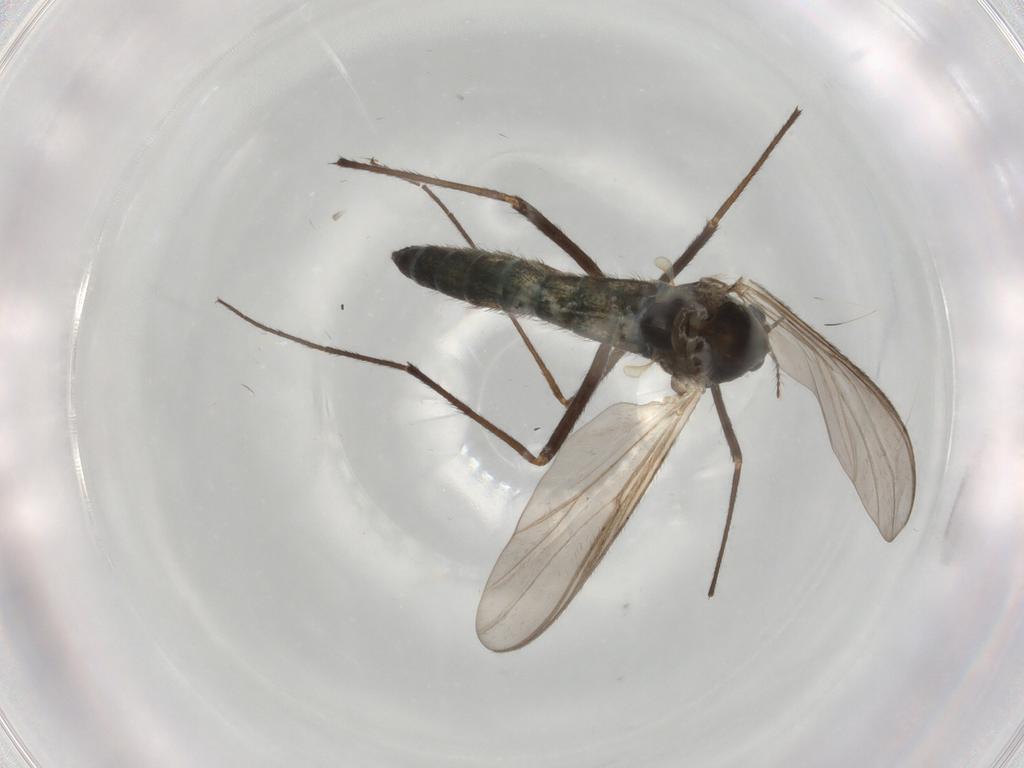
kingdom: Animalia
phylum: Arthropoda
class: Insecta
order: Diptera
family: Chironomidae
